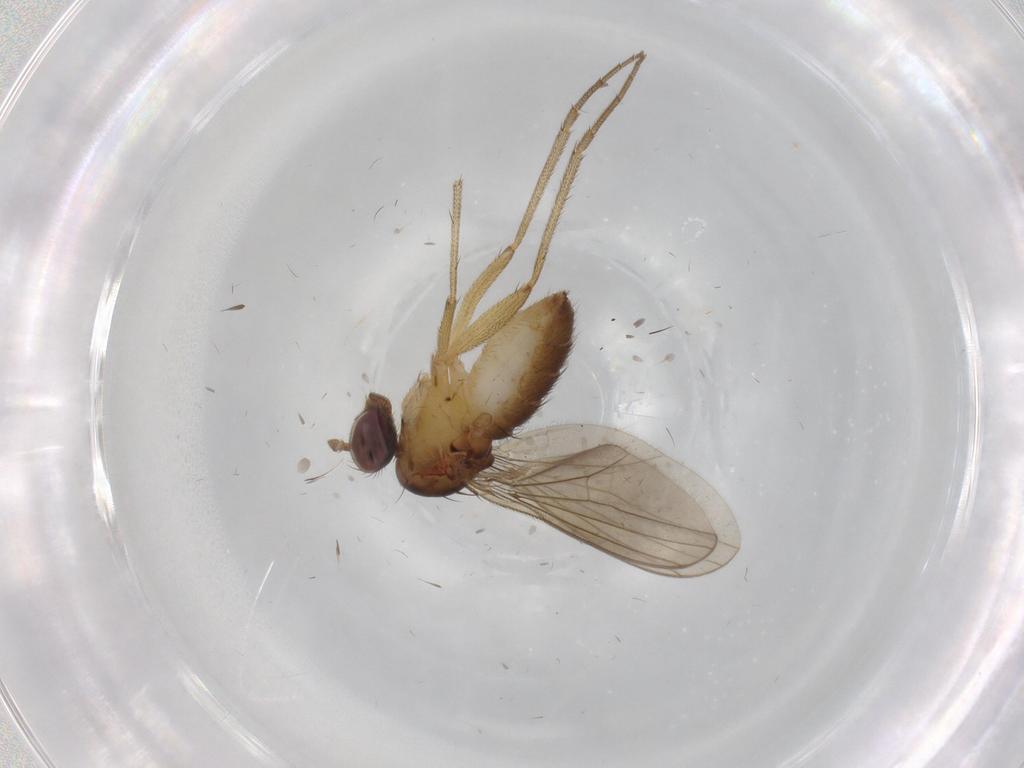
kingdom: Animalia
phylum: Arthropoda
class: Insecta
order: Diptera
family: Dolichopodidae
